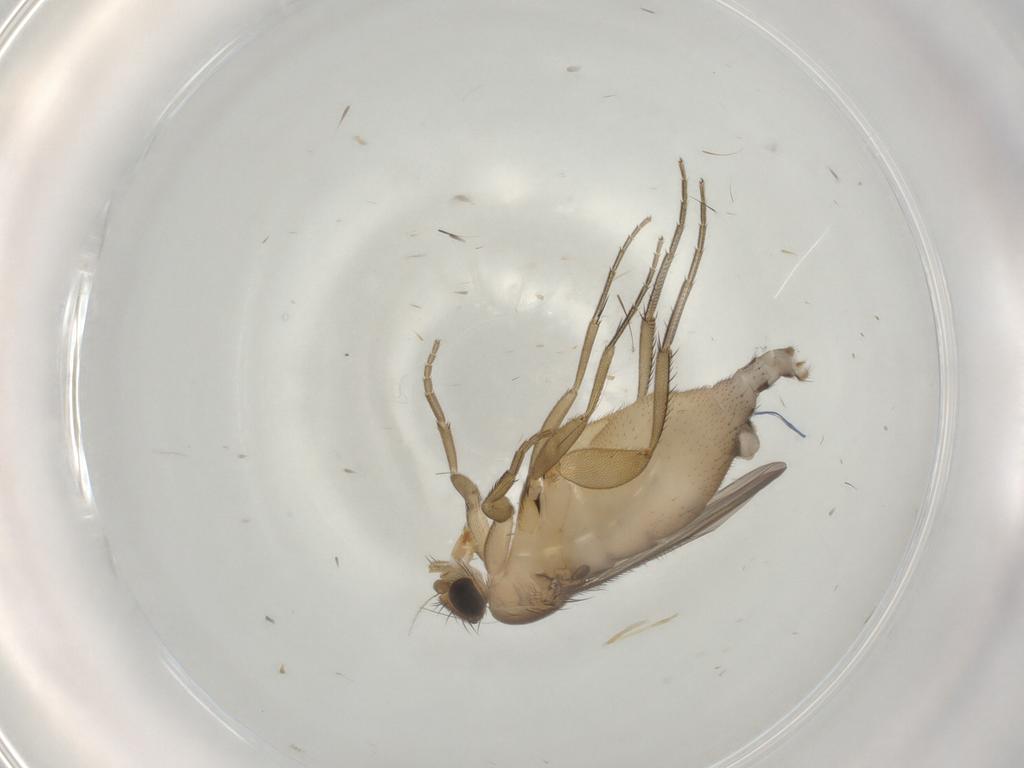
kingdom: Animalia
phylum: Arthropoda
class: Insecta
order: Diptera
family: Phoridae
